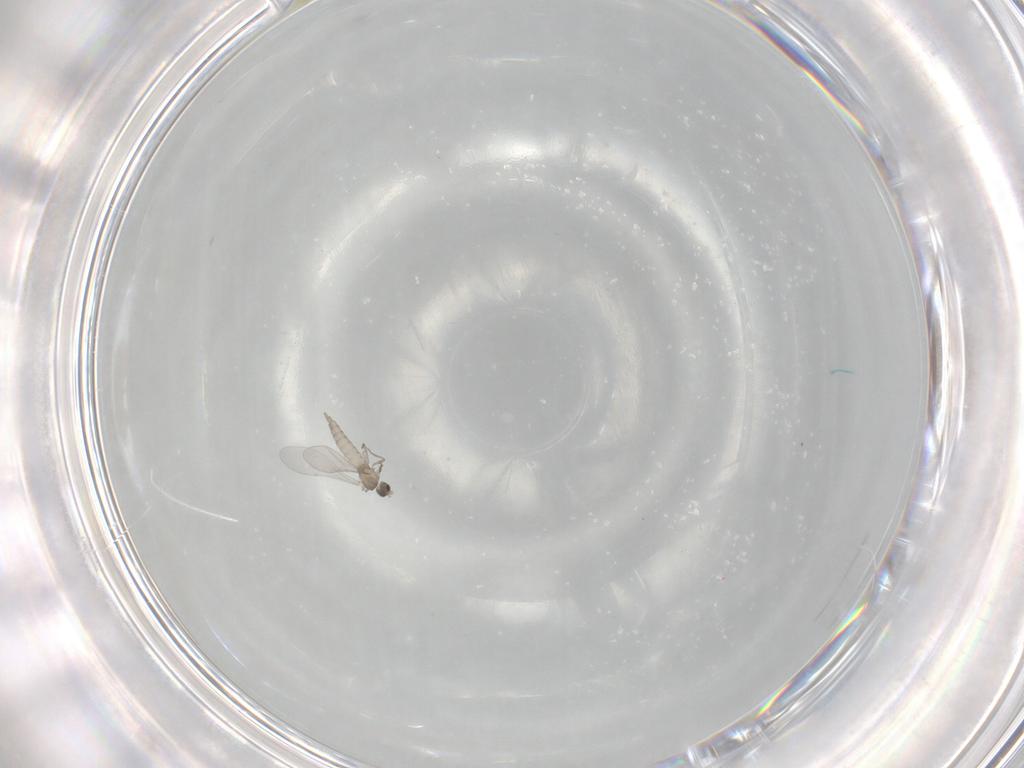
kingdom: Animalia
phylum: Arthropoda
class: Insecta
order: Diptera
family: Cecidomyiidae
